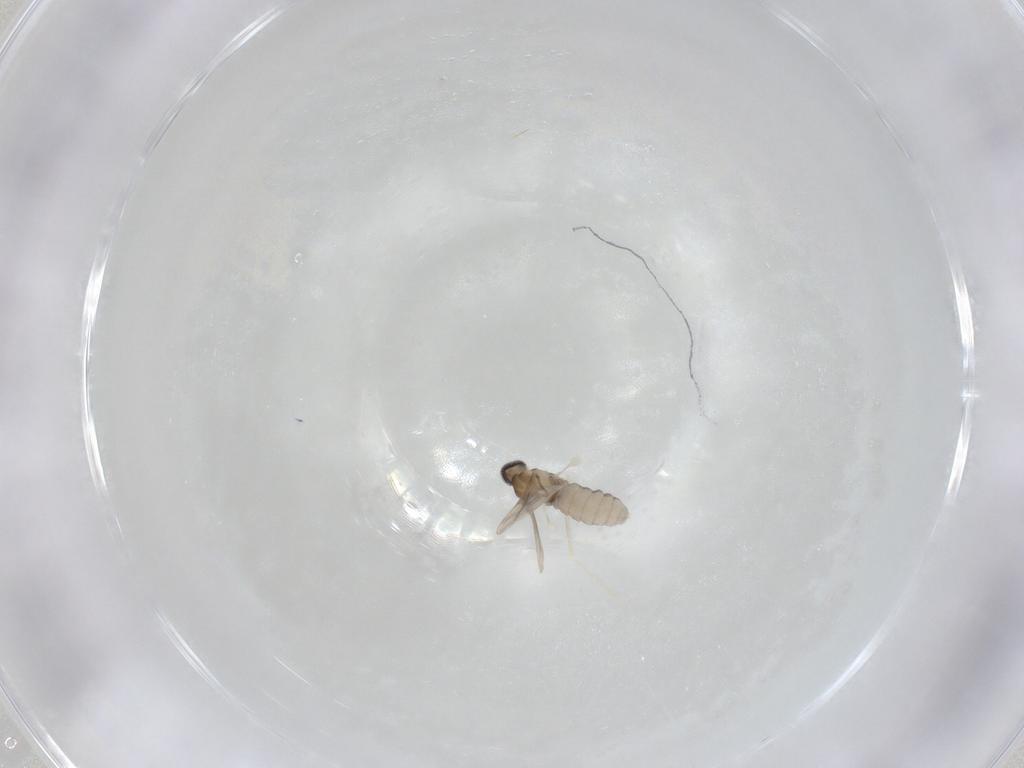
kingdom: Animalia
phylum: Arthropoda
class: Insecta
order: Diptera
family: Cecidomyiidae
